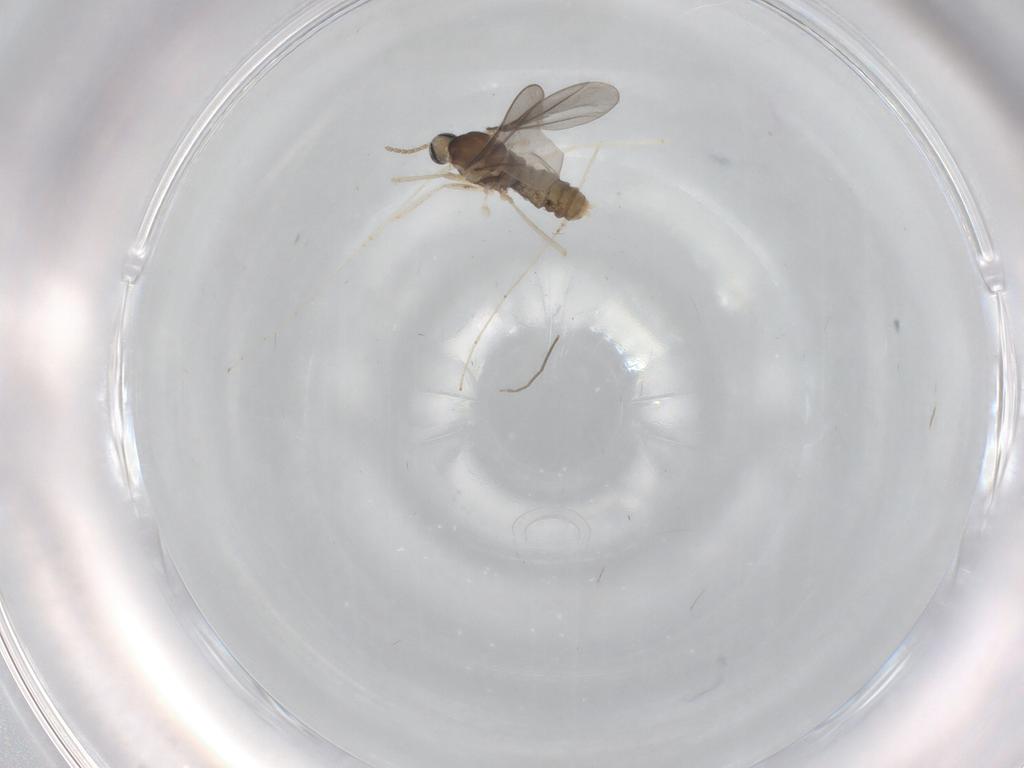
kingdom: Animalia
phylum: Arthropoda
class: Insecta
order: Diptera
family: Cecidomyiidae
